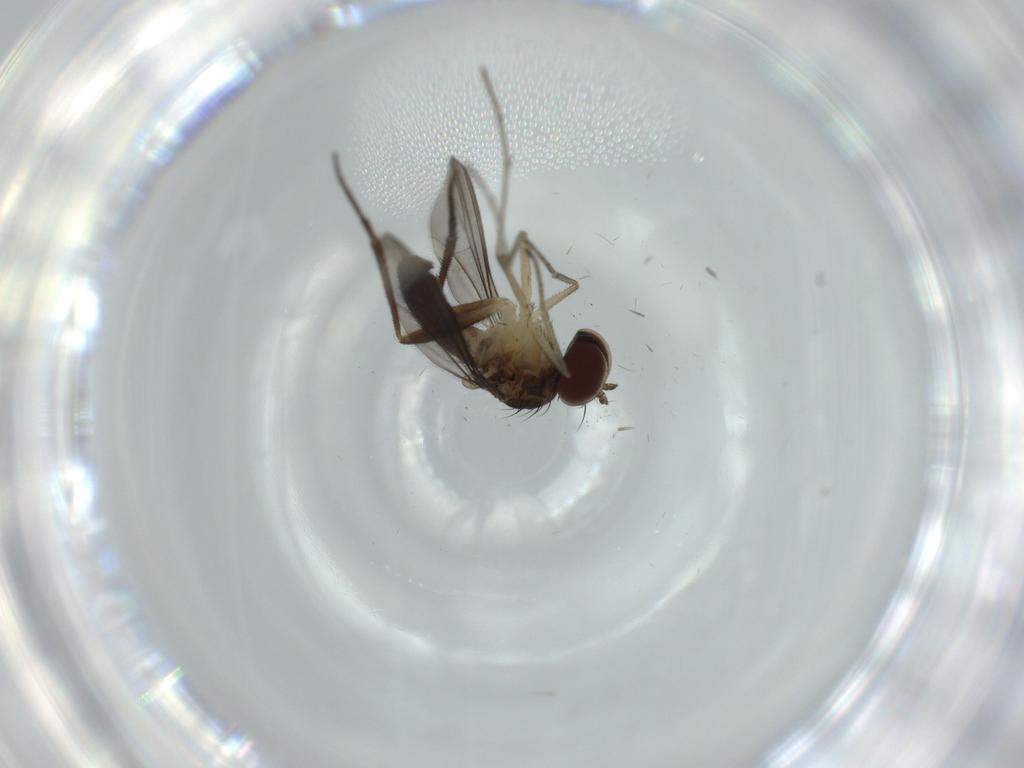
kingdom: Animalia
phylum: Arthropoda
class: Insecta
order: Diptera
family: Dolichopodidae
